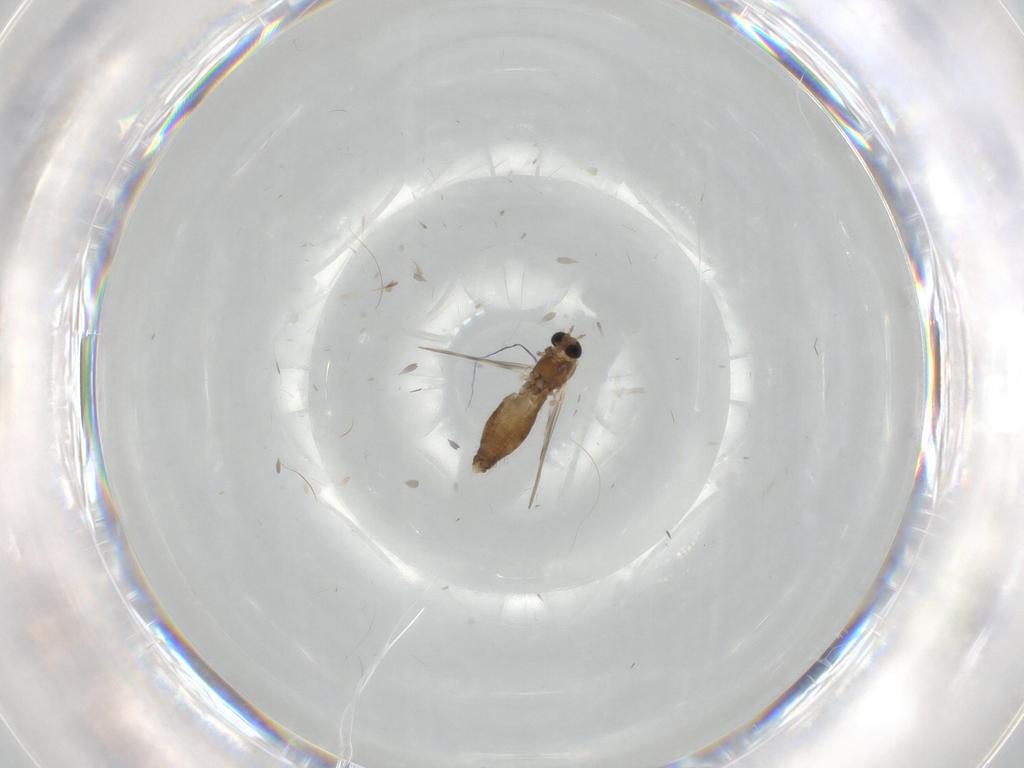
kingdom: Animalia
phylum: Arthropoda
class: Insecta
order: Diptera
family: Chironomidae
